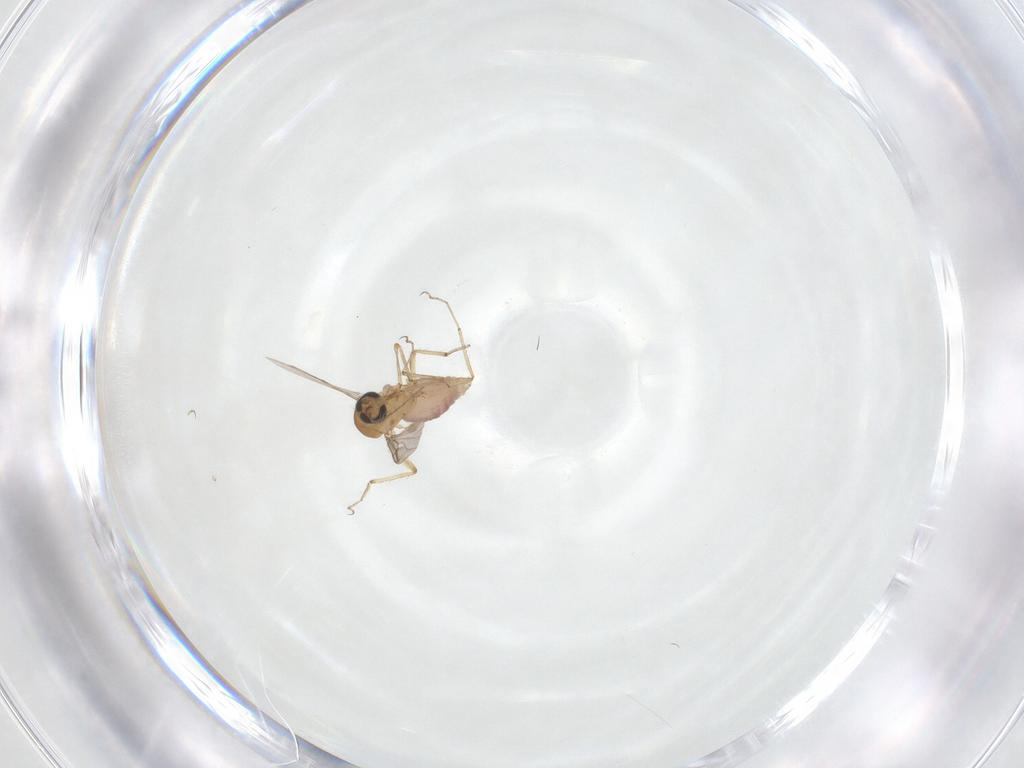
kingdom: Animalia
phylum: Arthropoda
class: Insecta
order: Diptera
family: Ceratopogonidae
